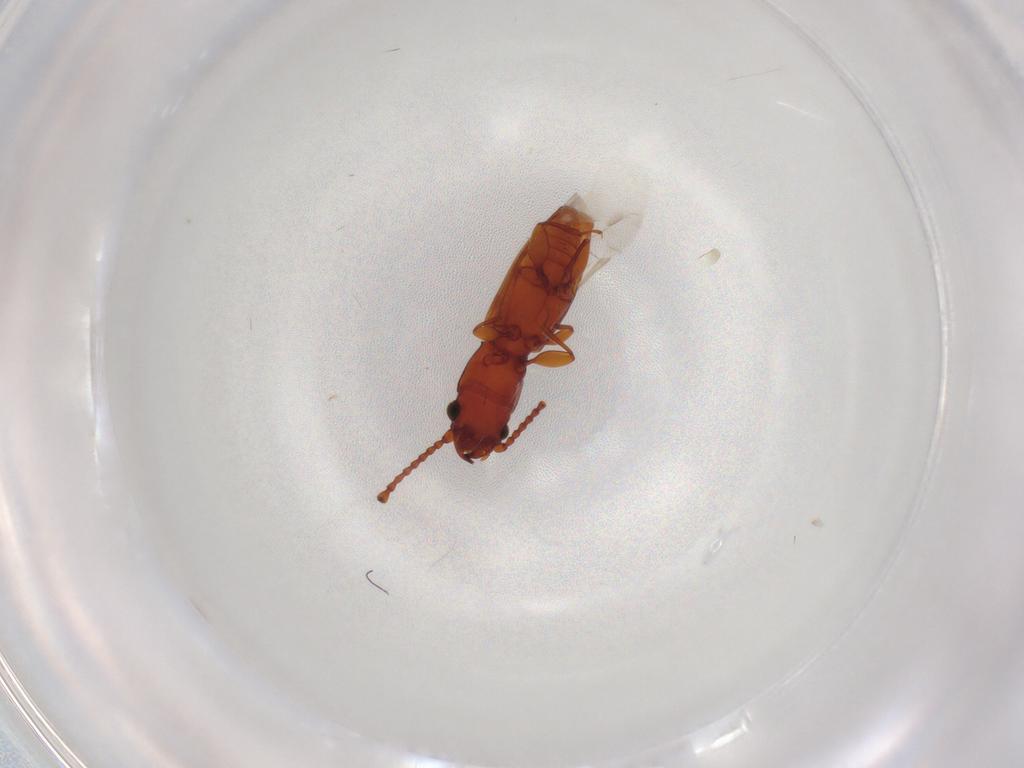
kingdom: Animalia
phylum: Arthropoda
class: Insecta
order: Coleoptera
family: Laemophloeidae
